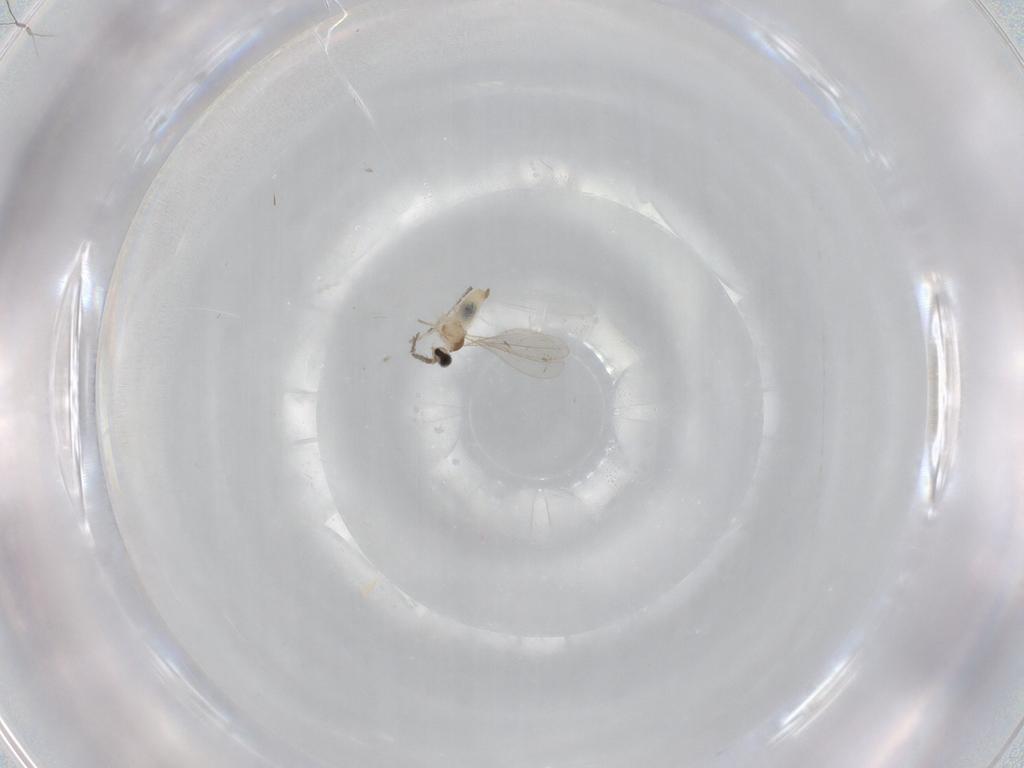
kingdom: Animalia
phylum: Arthropoda
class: Insecta
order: Diptera
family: Cecidomyiidae
